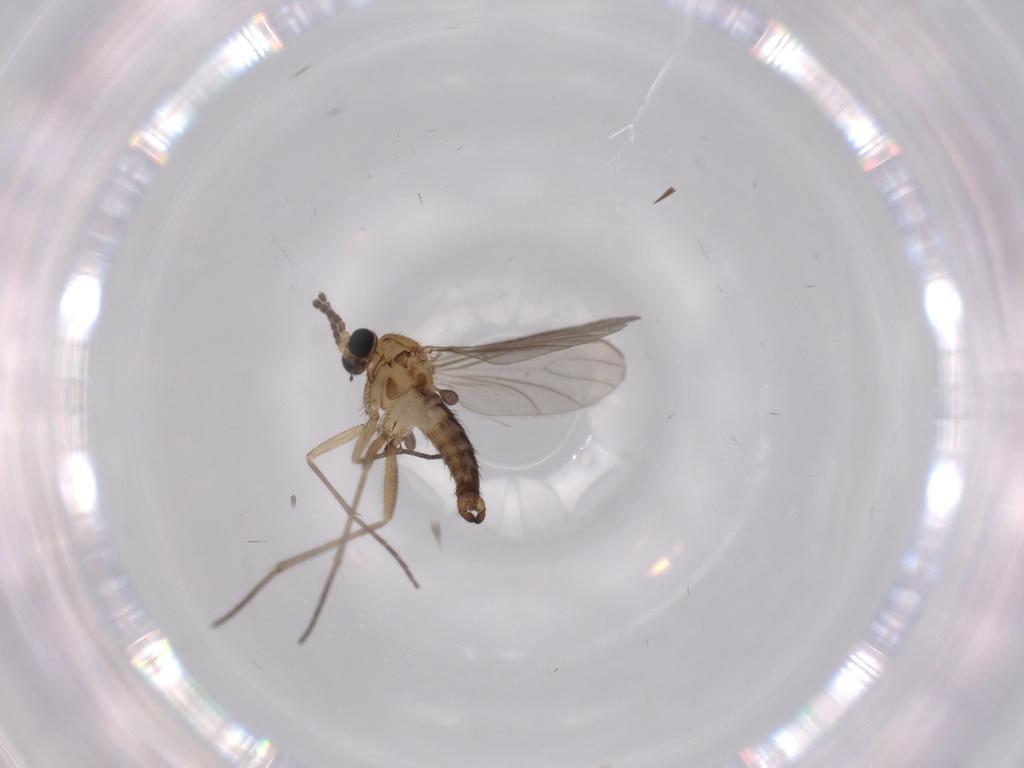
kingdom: Animalia
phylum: Arthropoda
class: Insecta
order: Diptera
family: Sciaridae
